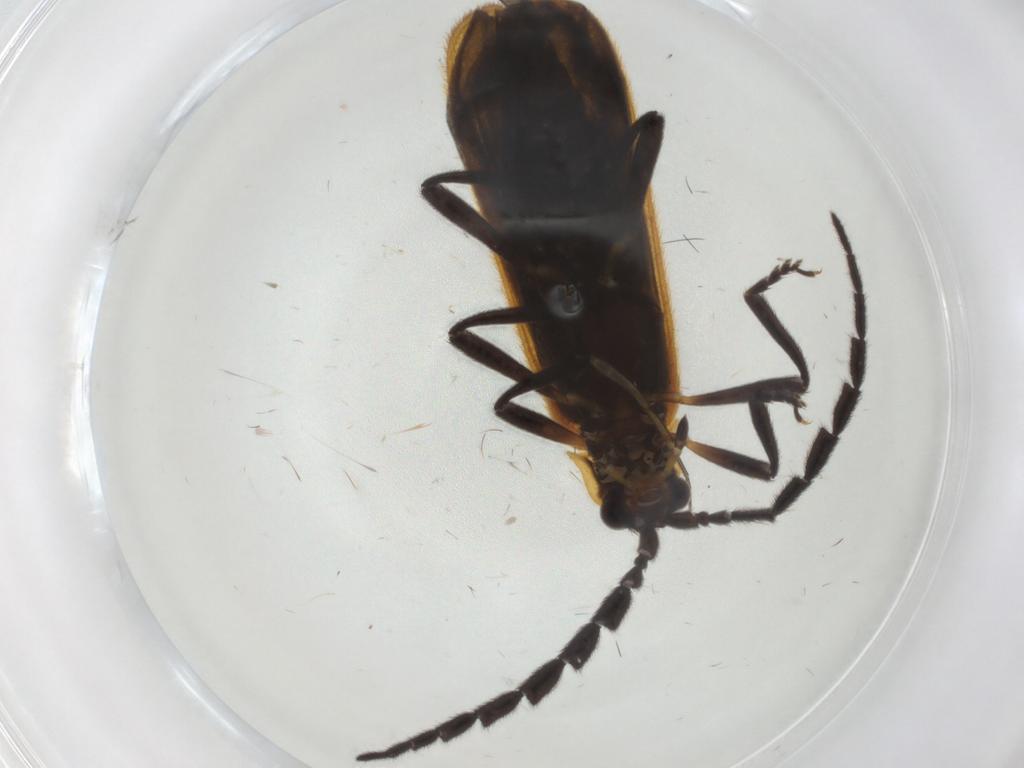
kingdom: Animalia
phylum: Arthropoda
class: Insecta
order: Coleoptera
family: Lycidae
